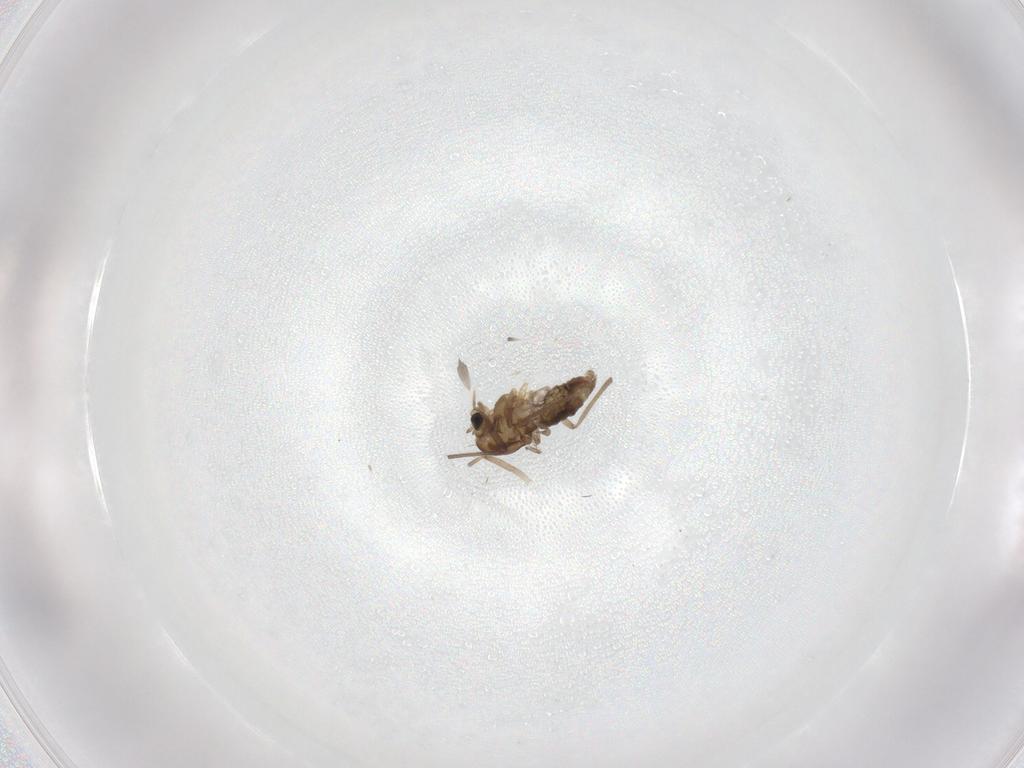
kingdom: Animalia
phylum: Arthropoda
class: Insecta
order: Diptera
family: Chironomidae
